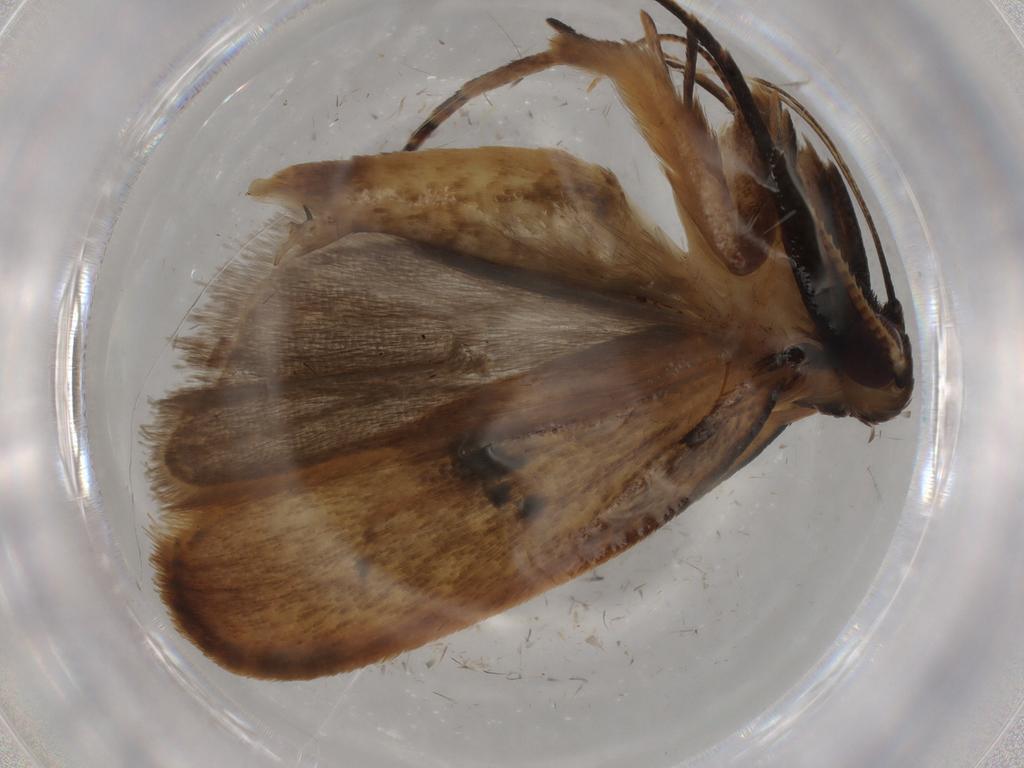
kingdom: Animalia
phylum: Arthropoda
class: Insecta
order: Lepidoptera
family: Gelechiidae
